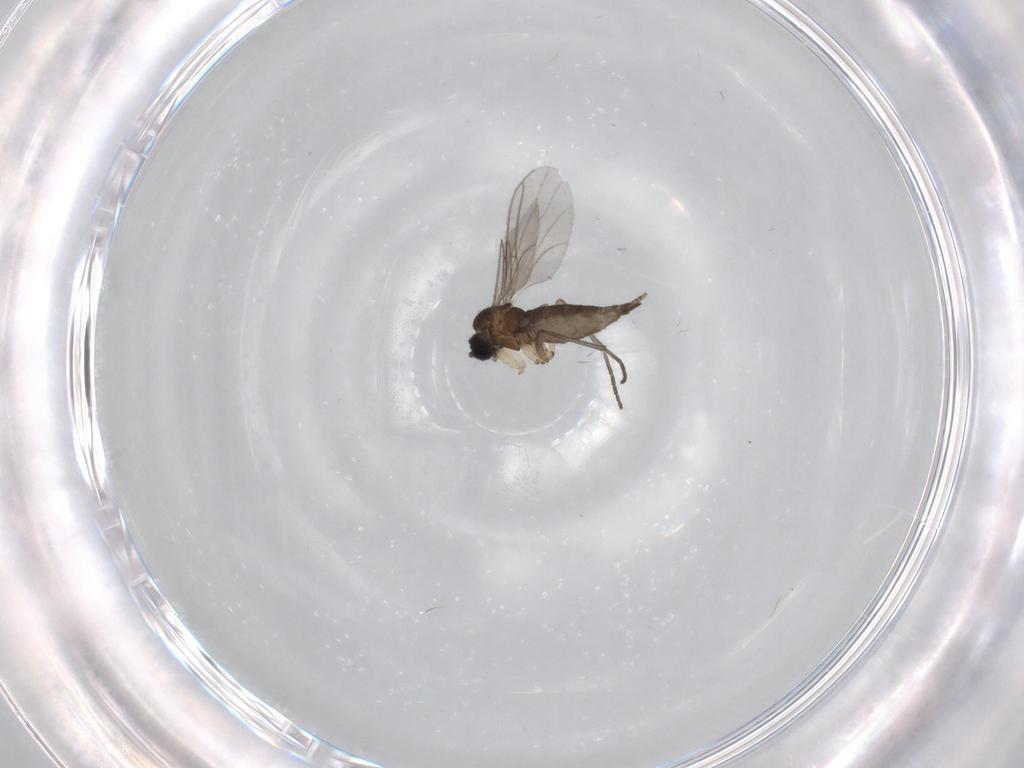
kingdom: Animalia
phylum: Arthropoda
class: Insecta
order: Diptera
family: Sciaridae
